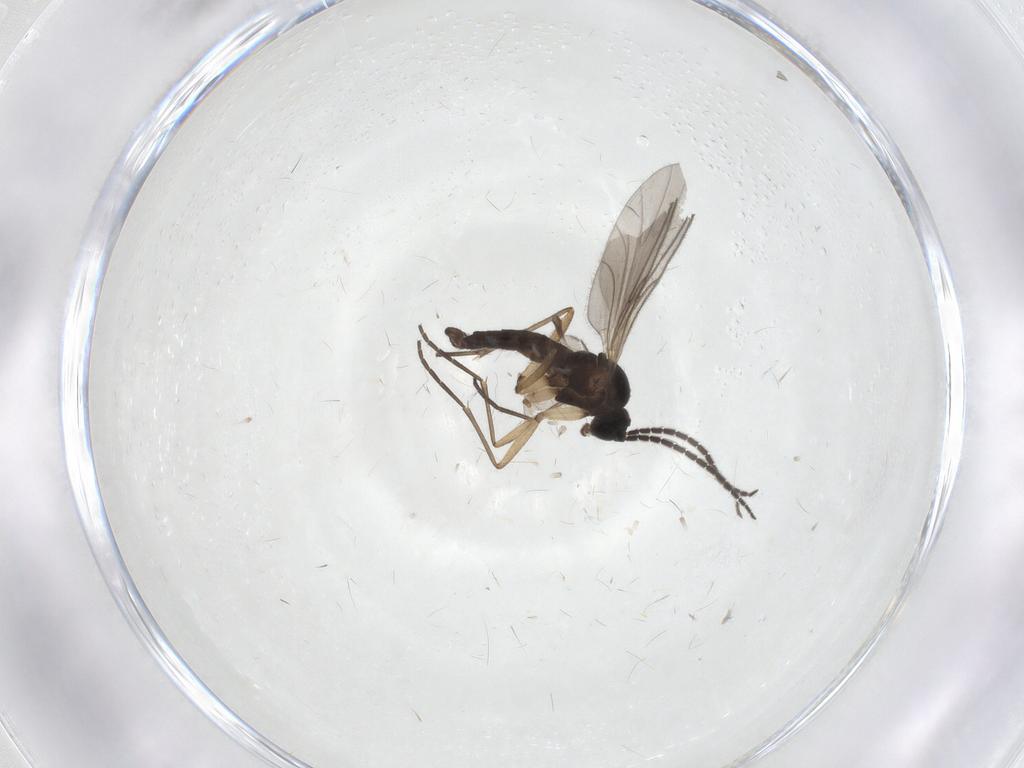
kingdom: Animalia
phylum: Arthropoda
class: Insecta
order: Diptera
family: Sciaridae
